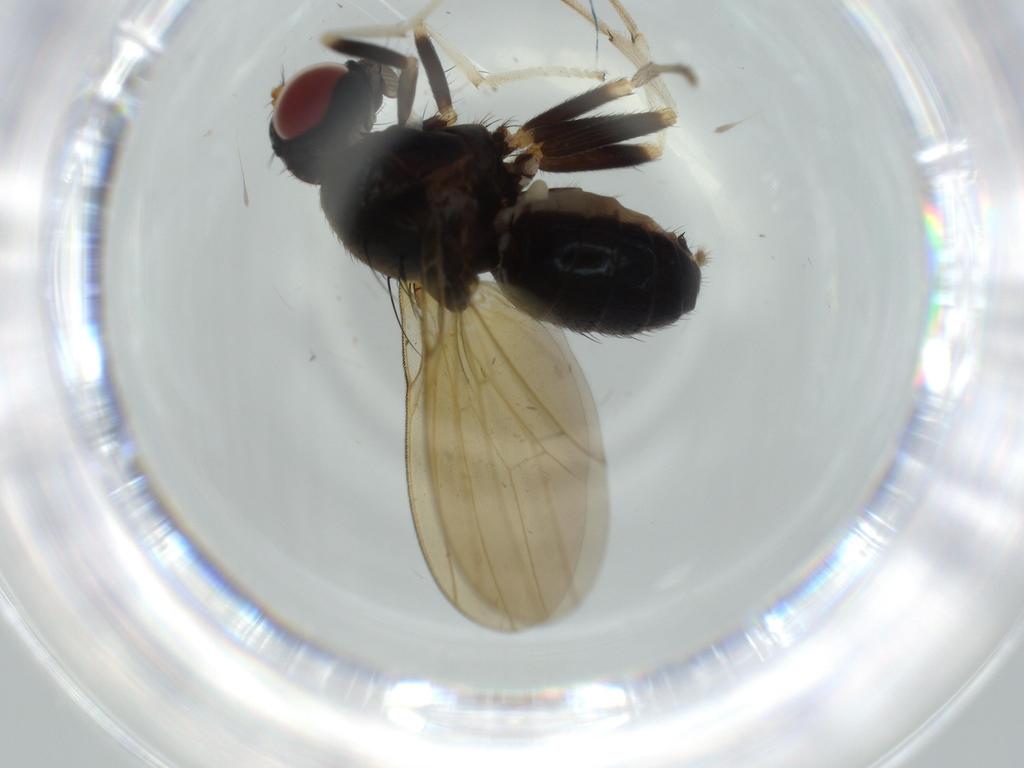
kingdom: Animalia
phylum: Arthropoda
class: Insecta
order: Diptera
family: Lauxaniidae
